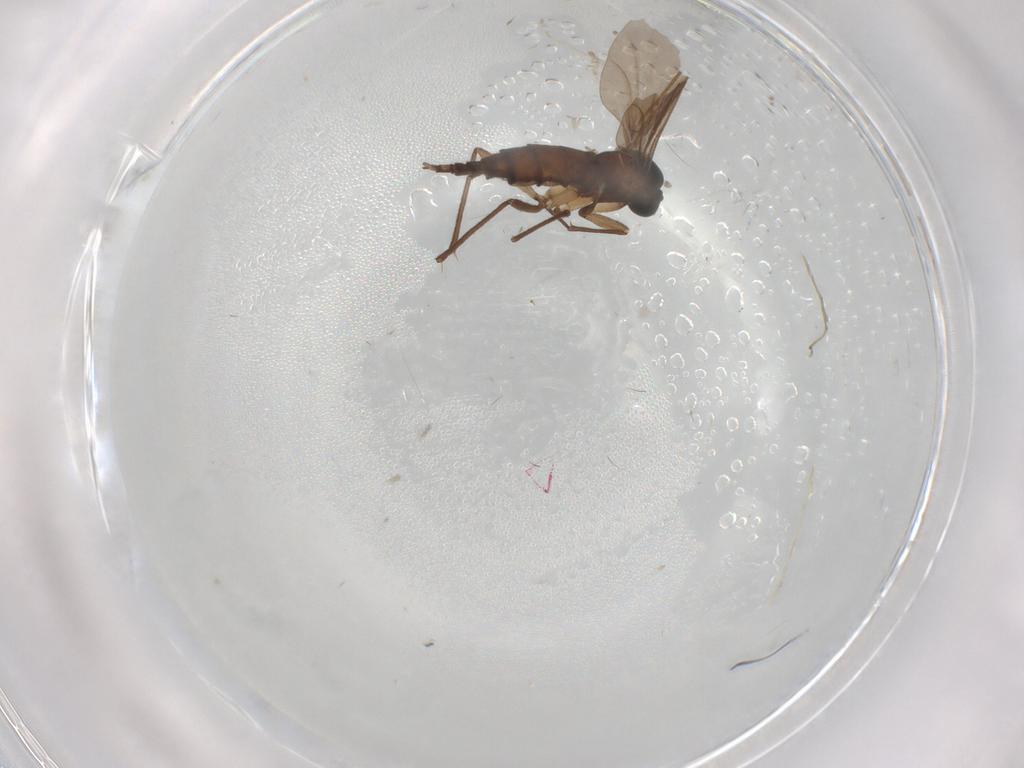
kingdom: Animalia
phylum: Arthropoda
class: Insecta
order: Diptera
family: Sciaridae
